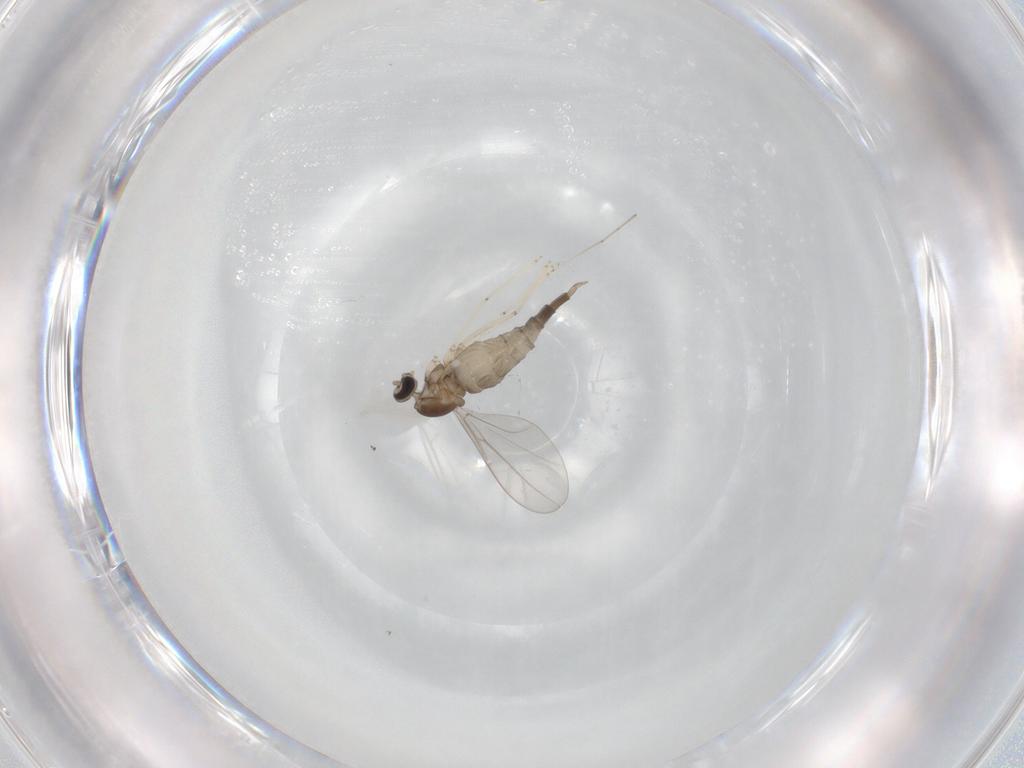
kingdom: Animalia
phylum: Arthropoda
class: Insecta
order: Diptera
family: Cecidomyiidae
